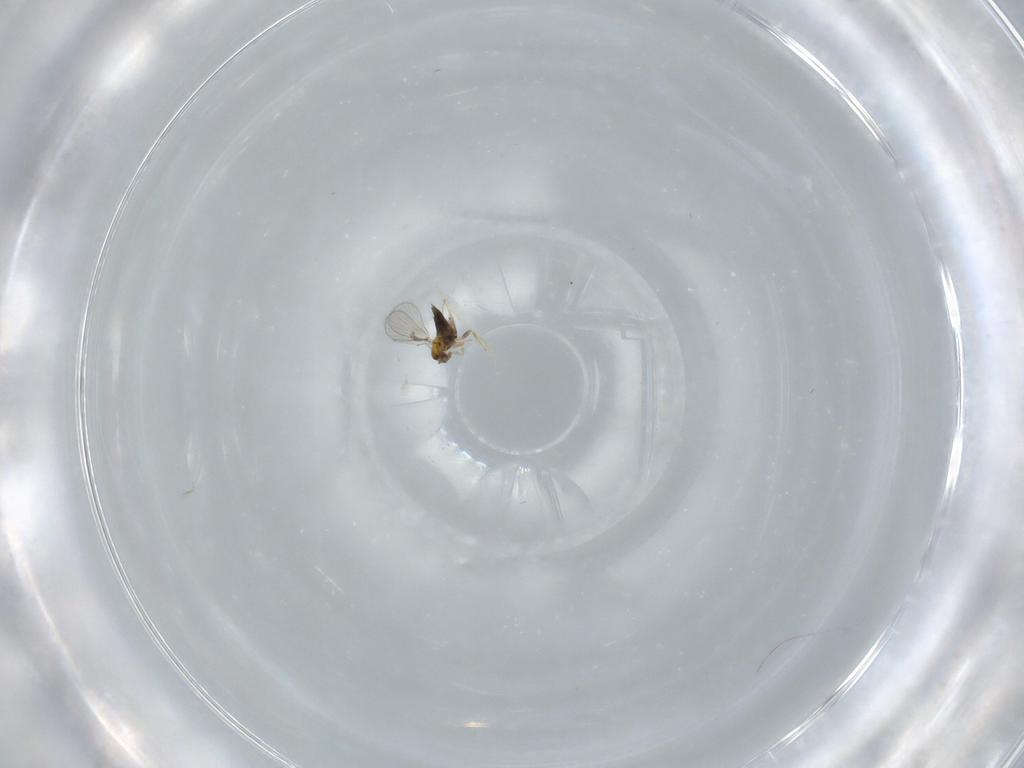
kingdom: Animalia
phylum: Arthropoda
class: Insecta
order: Hymenoptera
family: Trichogrammatidae
